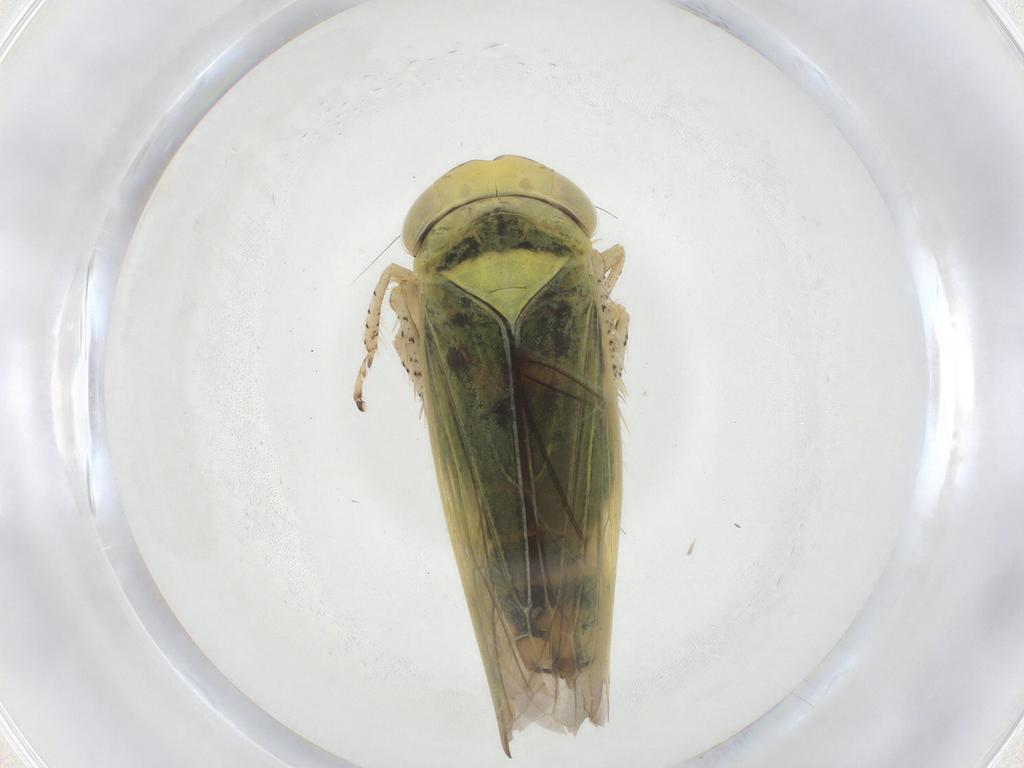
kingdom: Animalia
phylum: Arthropoda
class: Insecta
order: Hemiptera
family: Cicadellidae
